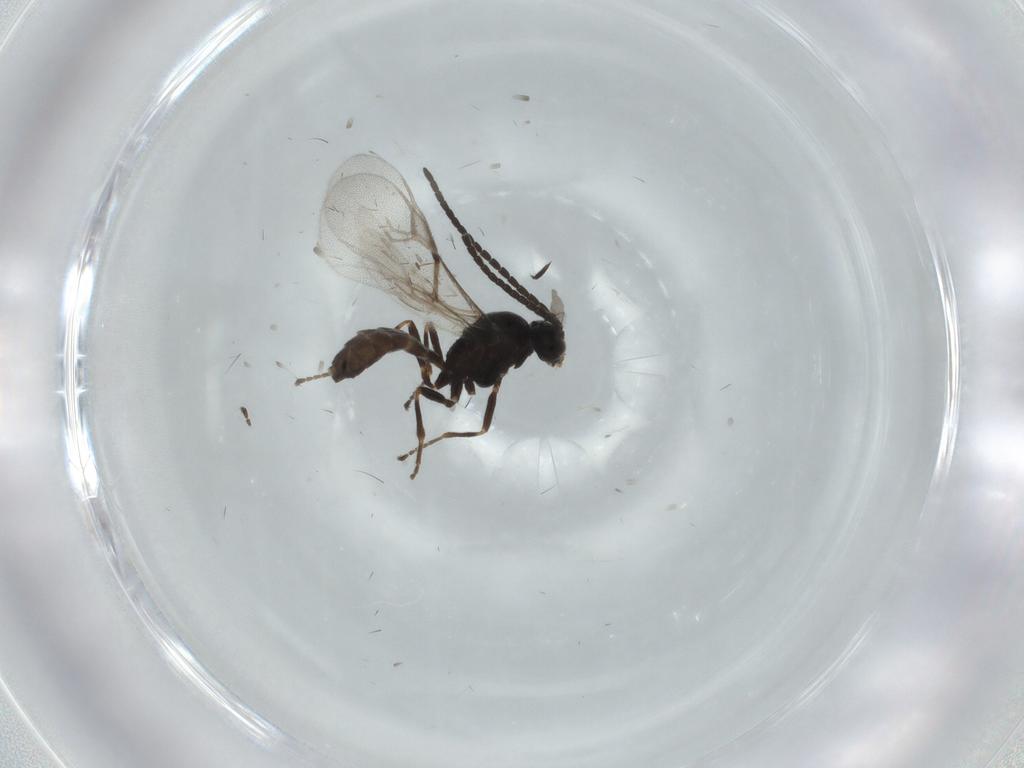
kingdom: Animalia
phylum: Arthropoda
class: Insecta
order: Hymenoptera
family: Braconidae
